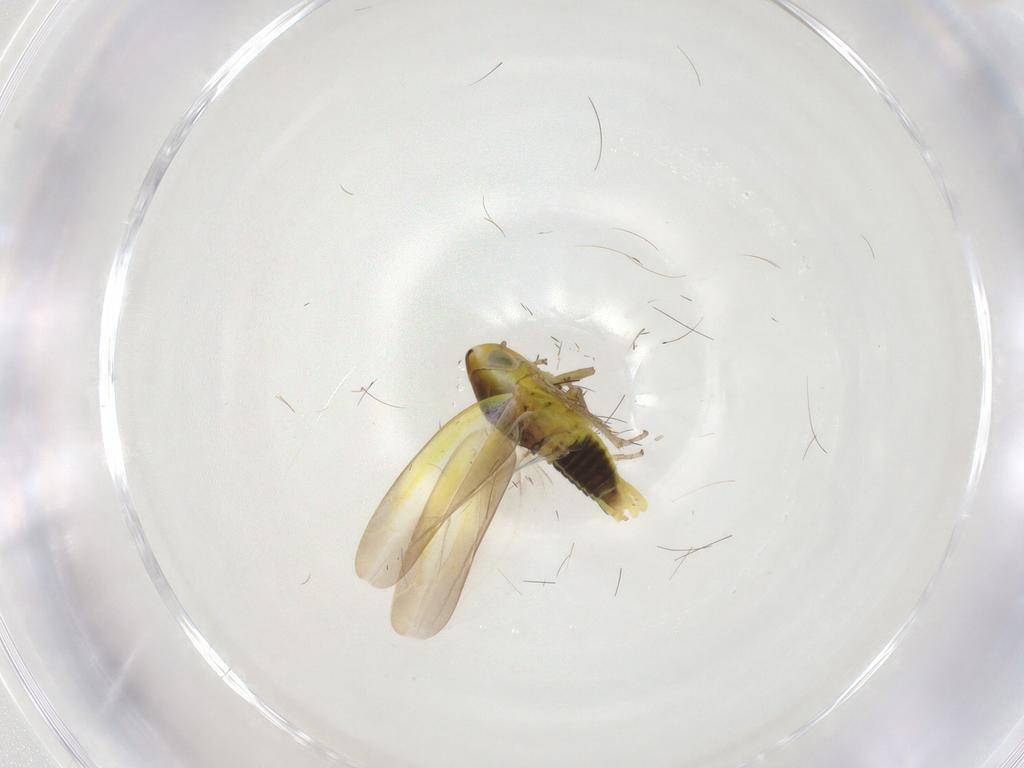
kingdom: Animalia
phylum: Arthropoda
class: Insecta
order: Hemiptera
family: Cicadellidae
